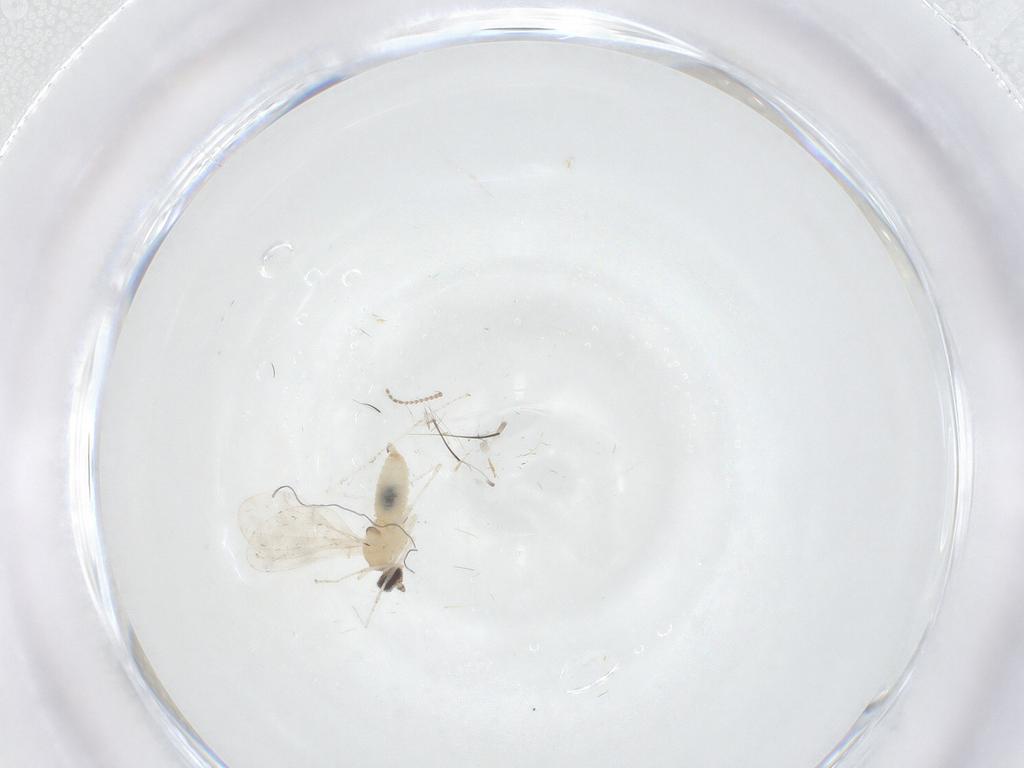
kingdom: Animalia
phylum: Arthropoda
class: Insecta
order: Diptera
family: Cecidomyiidae
